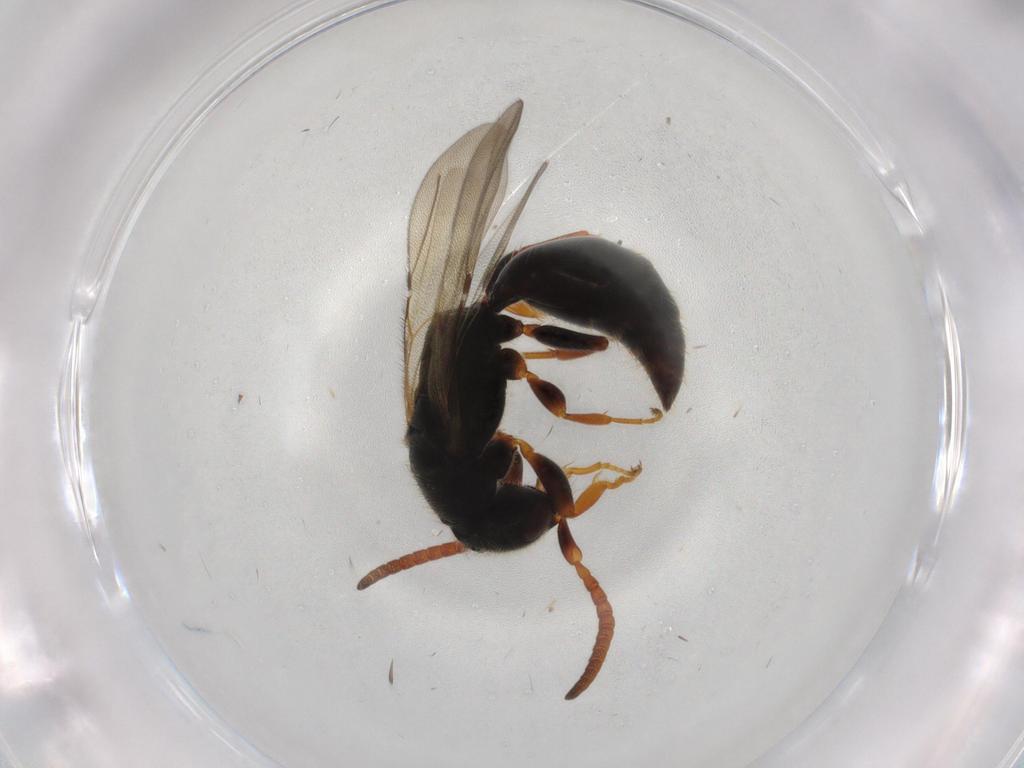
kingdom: Animalia
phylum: Arthropoda
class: Insecta
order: Hymenoptera
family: Bethylidae
